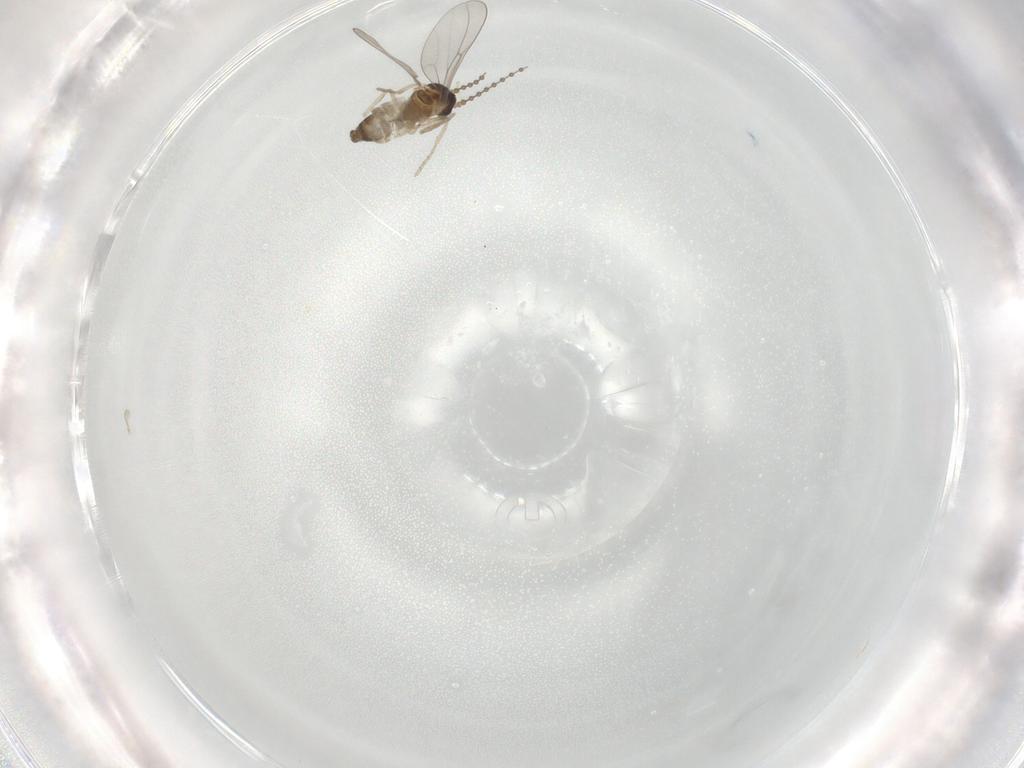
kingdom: Animalia
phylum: Arthropoda
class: Insecta
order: Diptera
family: Cecidomyiidae
